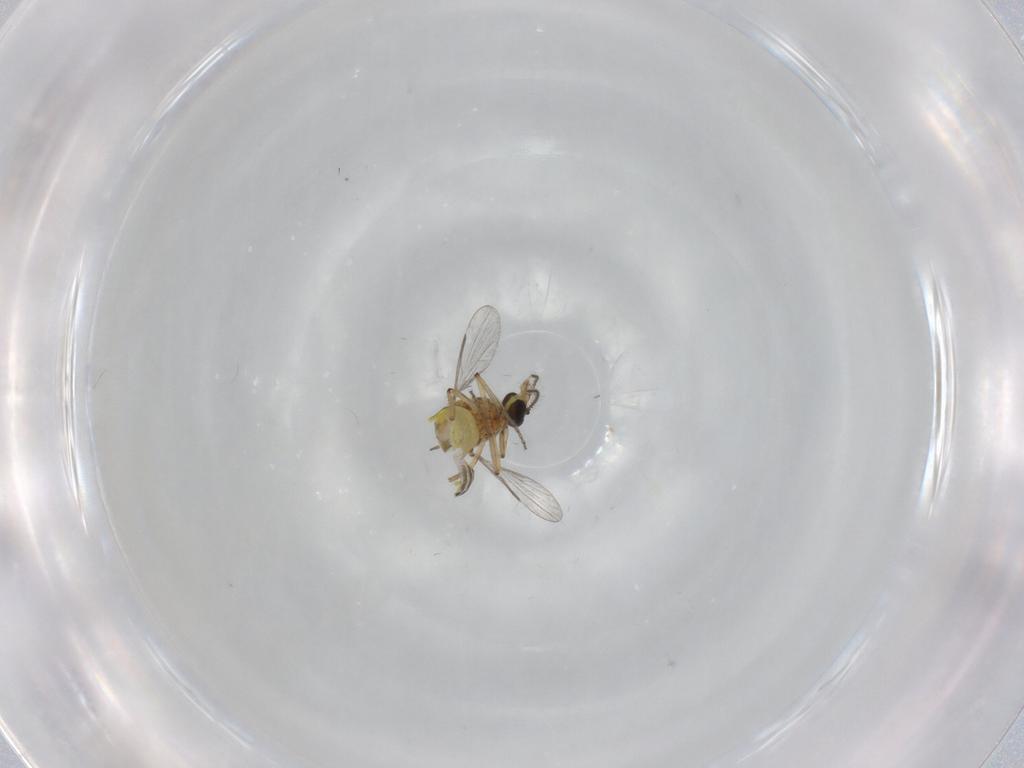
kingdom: Animalia
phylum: Arthropoda
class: Insecta
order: Diptera
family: Ceratopogonidae
